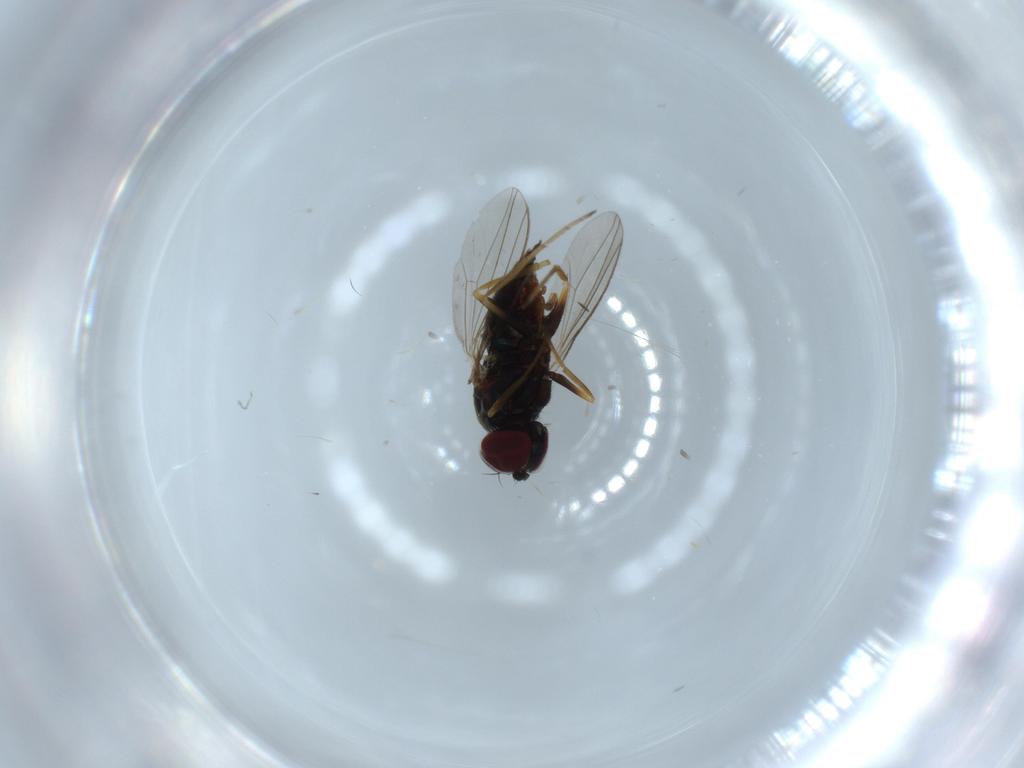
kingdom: Animalia
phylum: Arthropoda
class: Insecta
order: Diptera
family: Dolichopodidae
